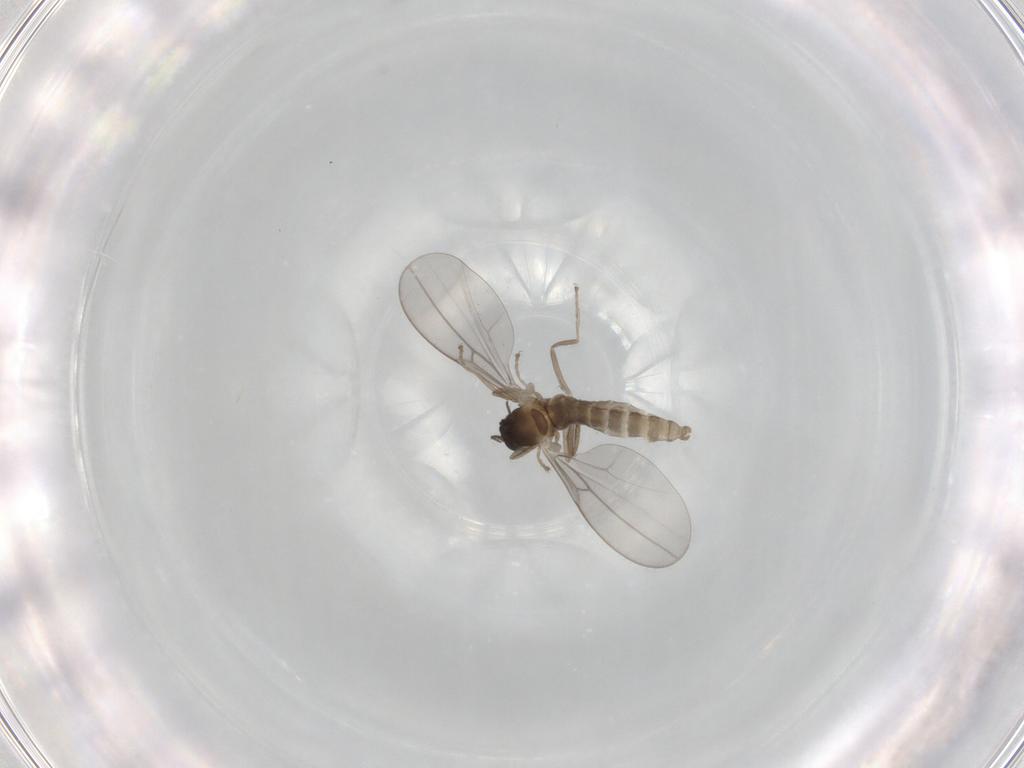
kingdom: Animalia
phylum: Arthropoda
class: Insecta
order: Diptera
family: Cecidomyiidae
